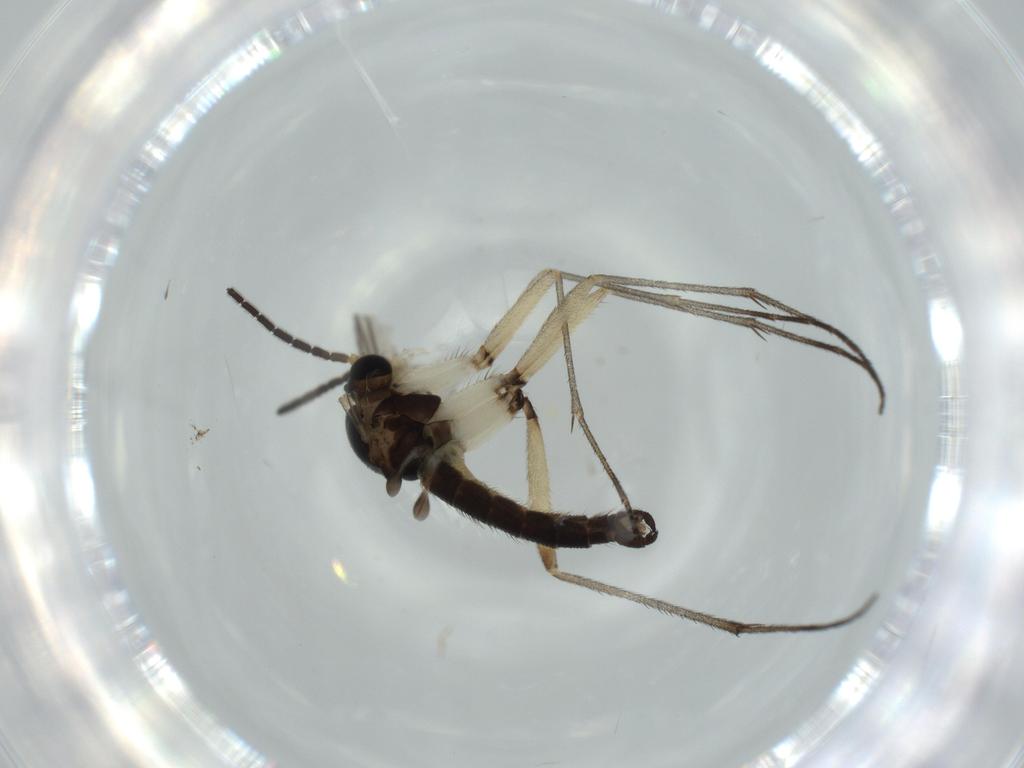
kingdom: Animalia
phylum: Arthropoda
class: Insecta
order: Diptera
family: Sciaridae
